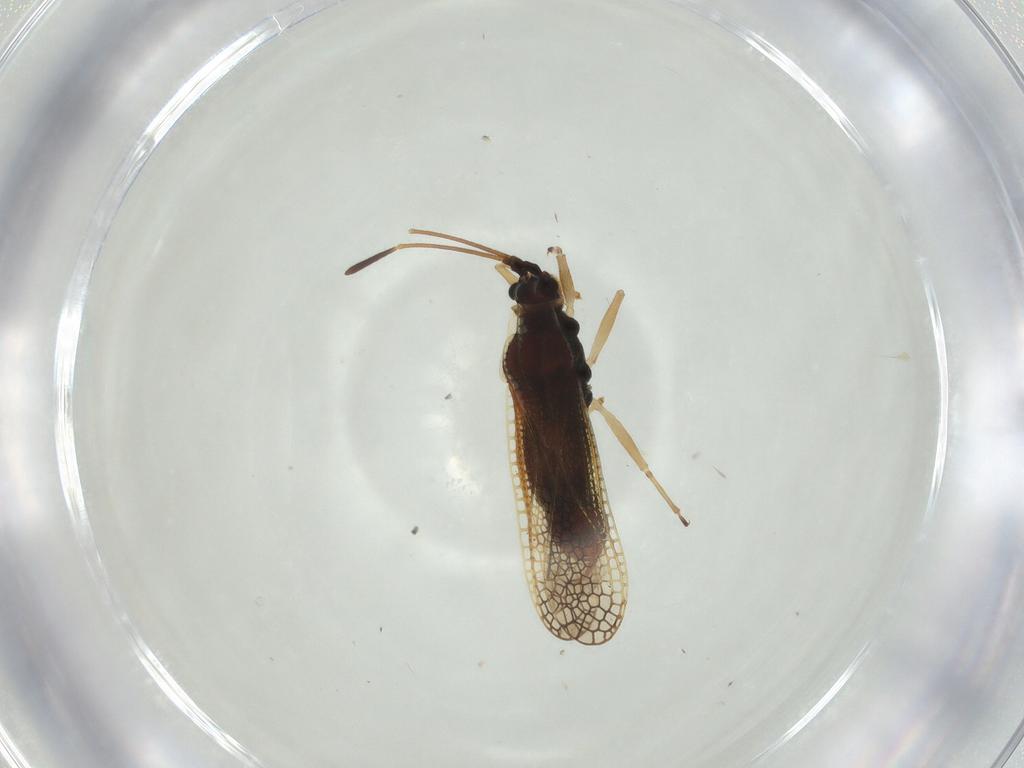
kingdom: Animalia
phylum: Arthropoda
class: Insecta
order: Hemiptera
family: Tingidae
